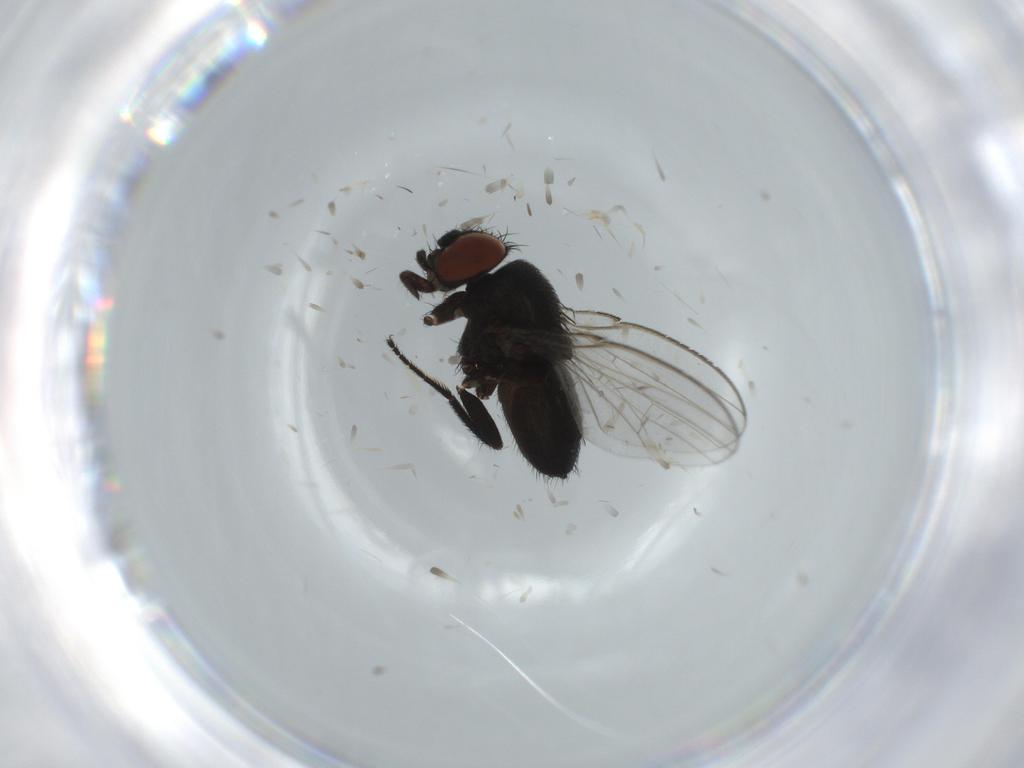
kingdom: Animalia
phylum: Arthropoda
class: Insecta
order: Diptera
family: Milichiidae
